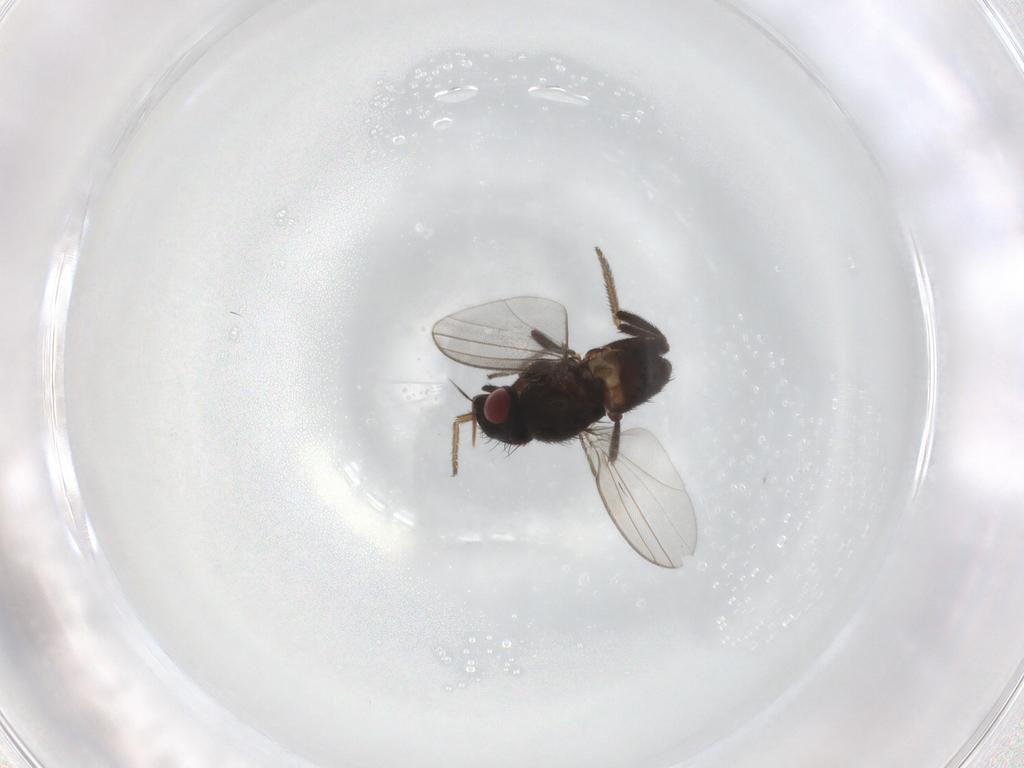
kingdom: Animalia
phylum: Arthropoda
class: Insecta
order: Diptera
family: Milichiidae
